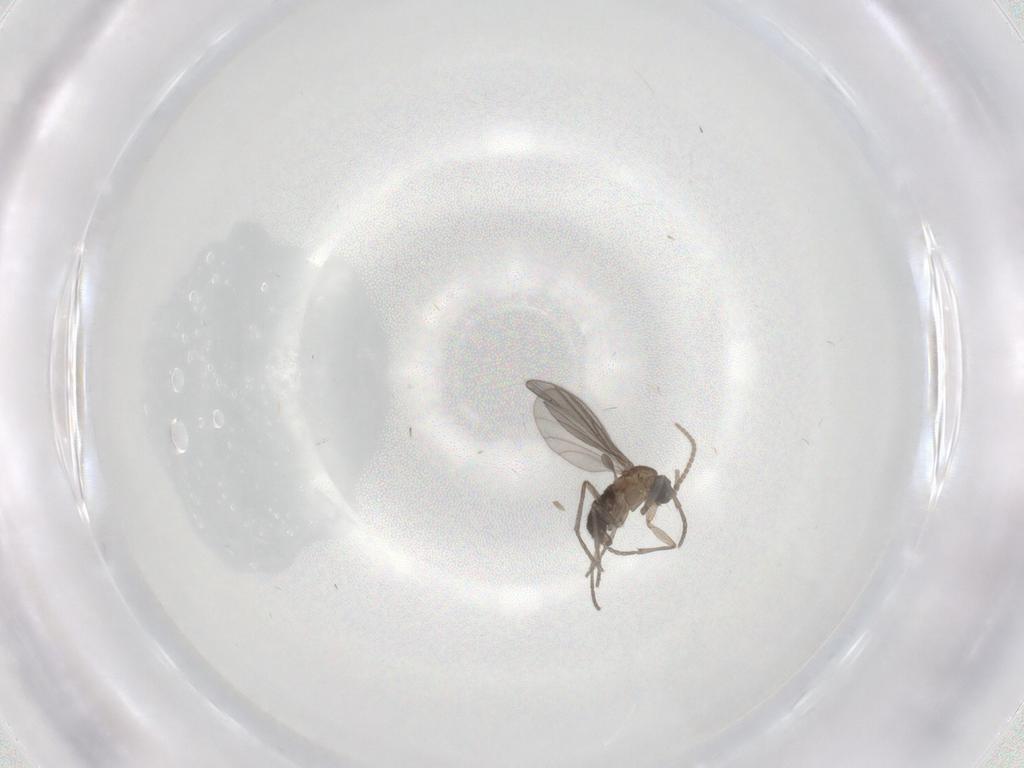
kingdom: Animalia
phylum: Arthropoda
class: Insecta
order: Diptera
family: Sciaridae
